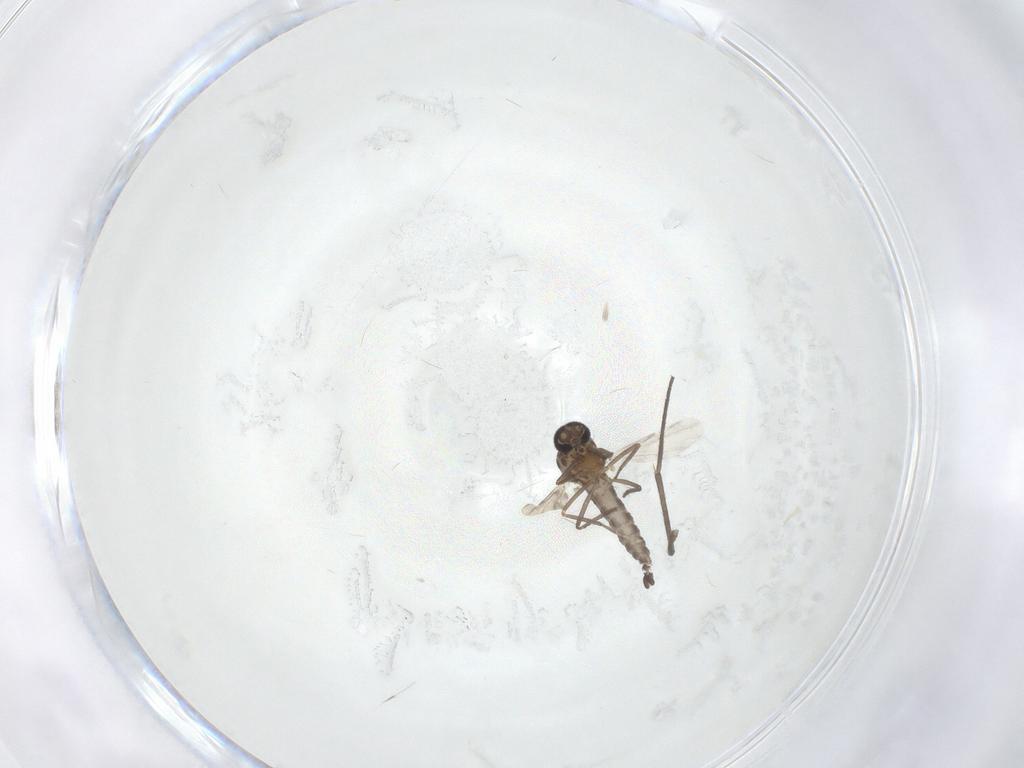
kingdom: Animalia
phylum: Arthropoda
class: Insecta
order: Diptera
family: Ceratopogonidae
